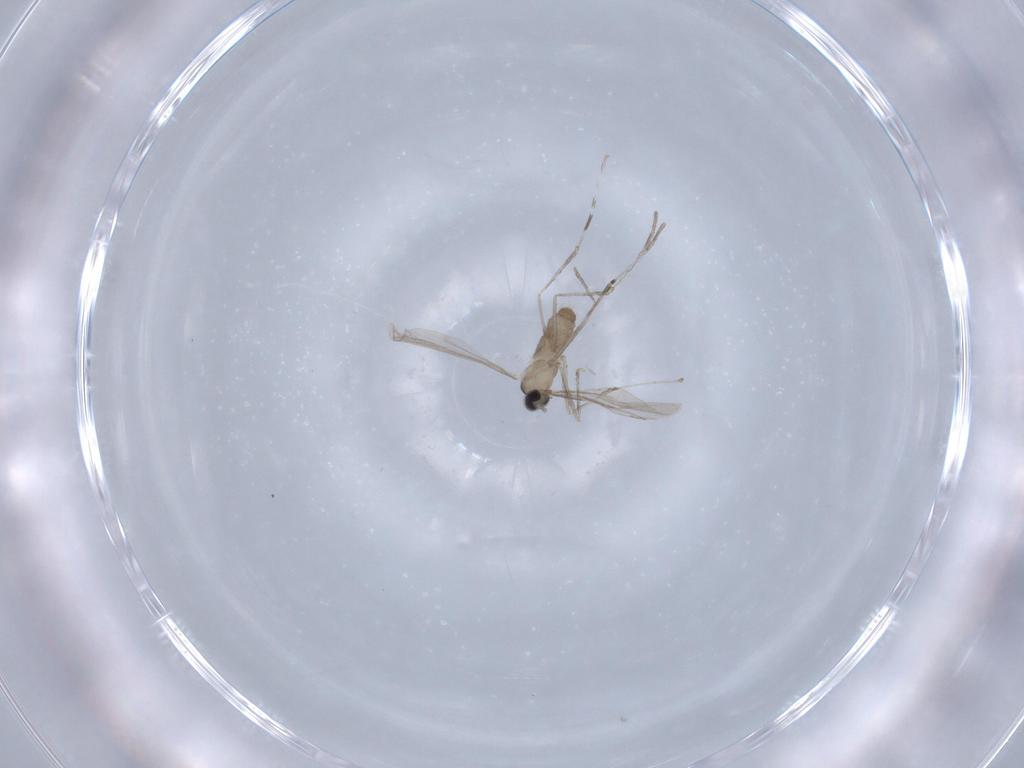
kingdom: Animalia
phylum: Arthropoda
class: Insecta
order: Diptera
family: Cecidomyiidae
